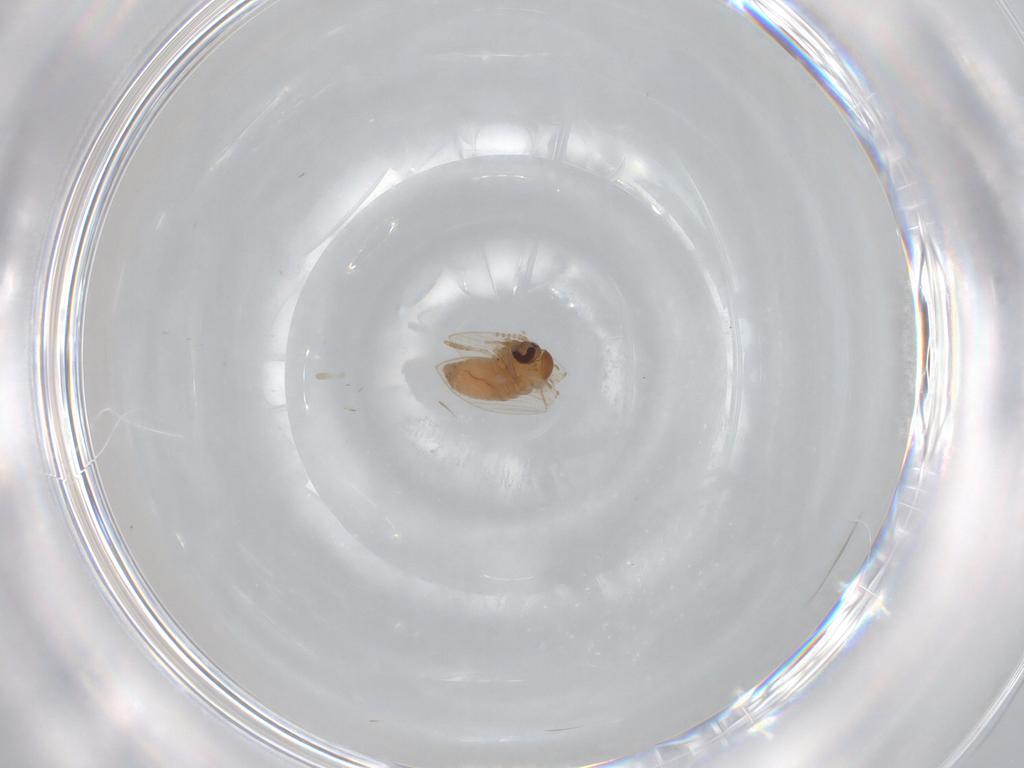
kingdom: Animalia
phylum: Arthropoda
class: Insecta
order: Diptera
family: Psychodidae
